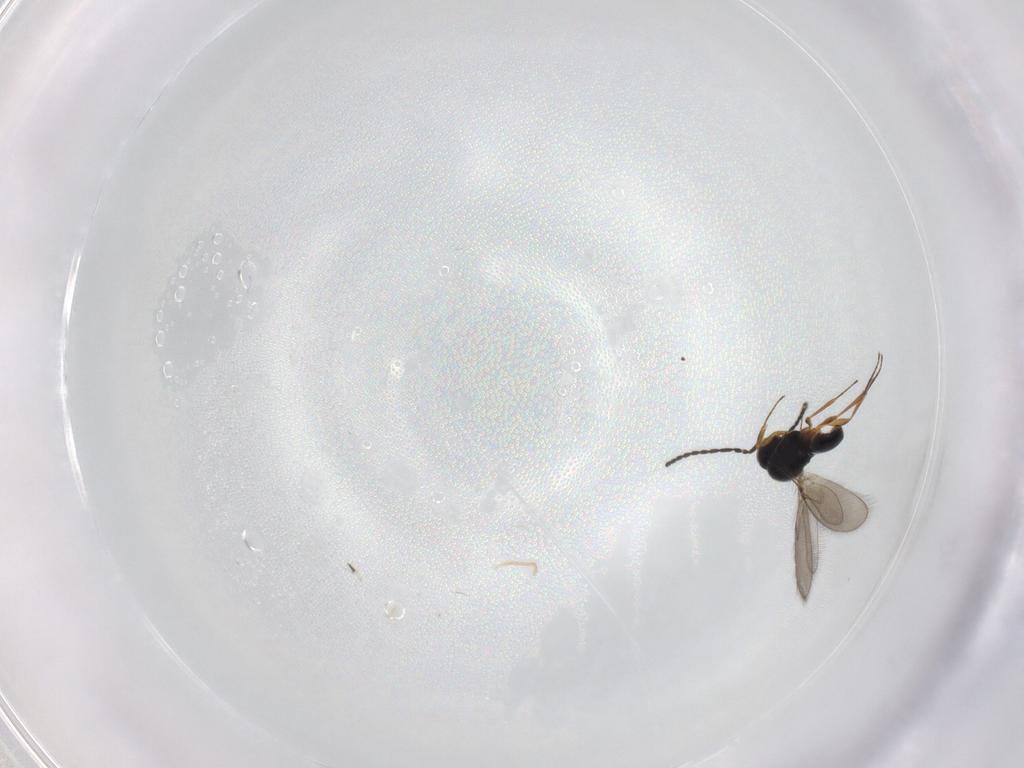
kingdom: Animalia
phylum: Arthropoda
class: Insecta
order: Hymenoptera
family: Scelionidae
